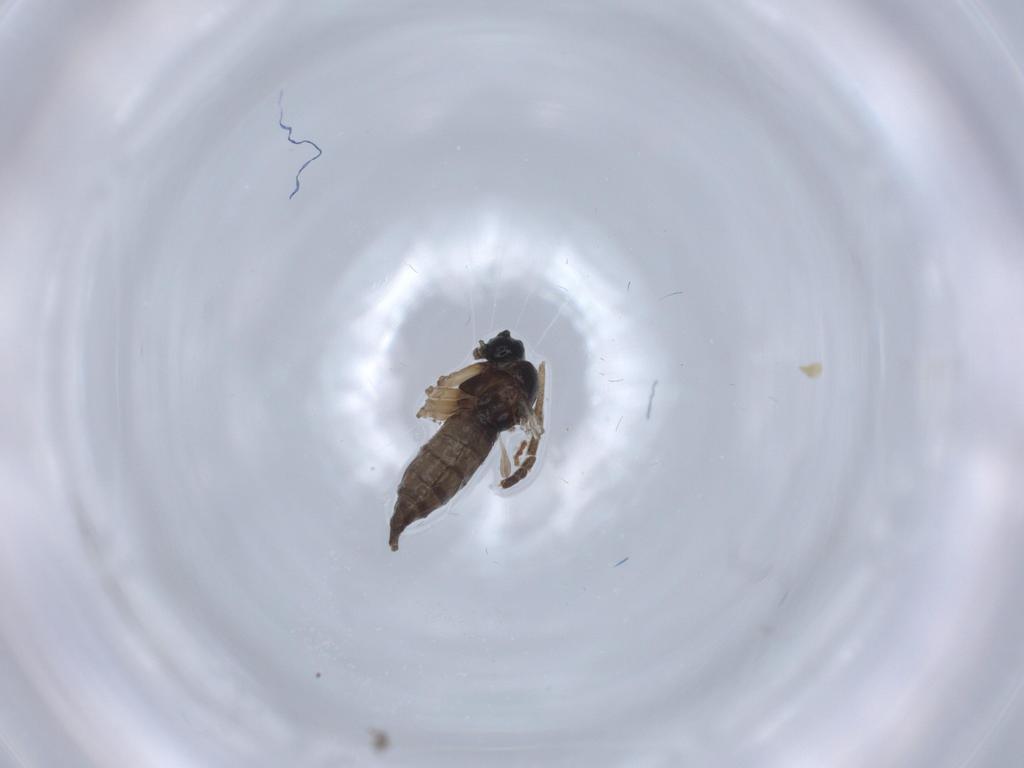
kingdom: Animalia
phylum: Arthropoda
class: Insecta
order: Diptera
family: Sciaridae
